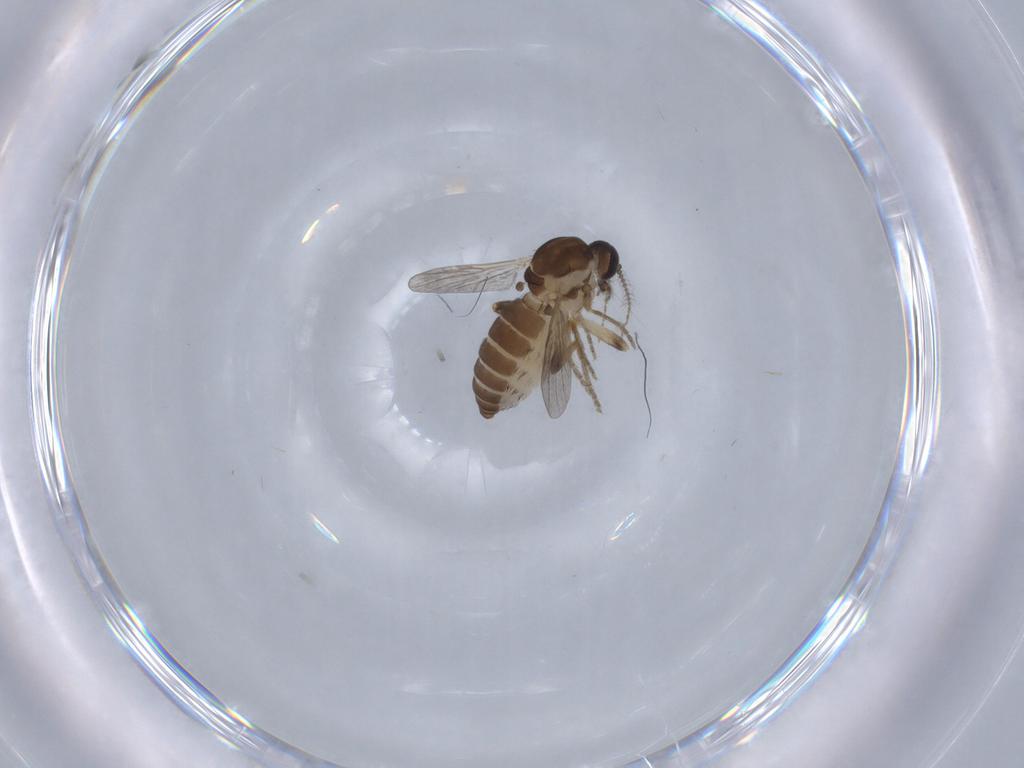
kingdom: Animalia
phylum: Arthropoda
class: Insecta
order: Diptera
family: Ceratopogonidae
